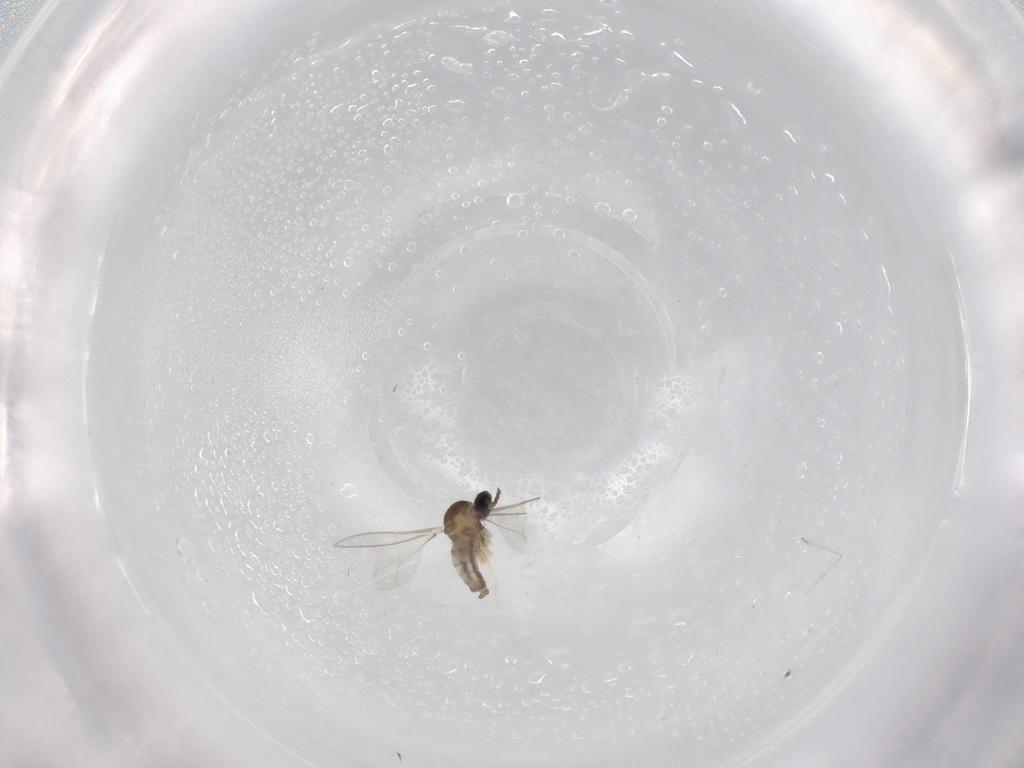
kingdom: Animalia
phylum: Arthropoda
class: Insecta
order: Diptera
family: Cecidomyiidae
